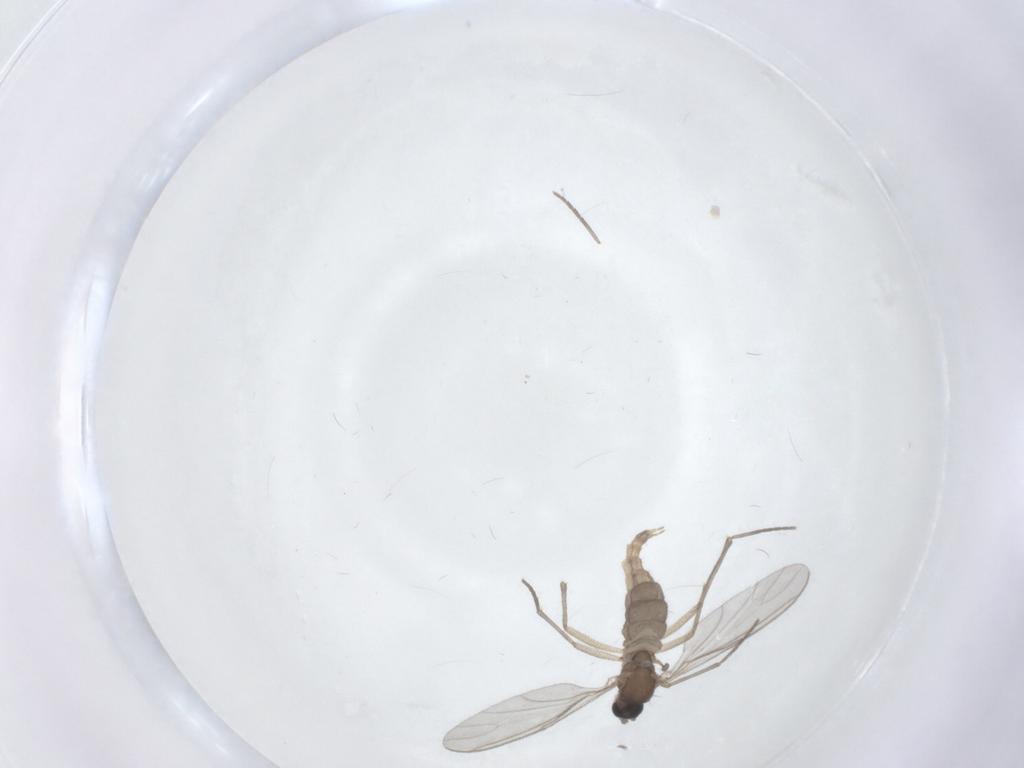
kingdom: Animalia
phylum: Arthropoda
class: Insecta
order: Diptera
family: Sciaridae
